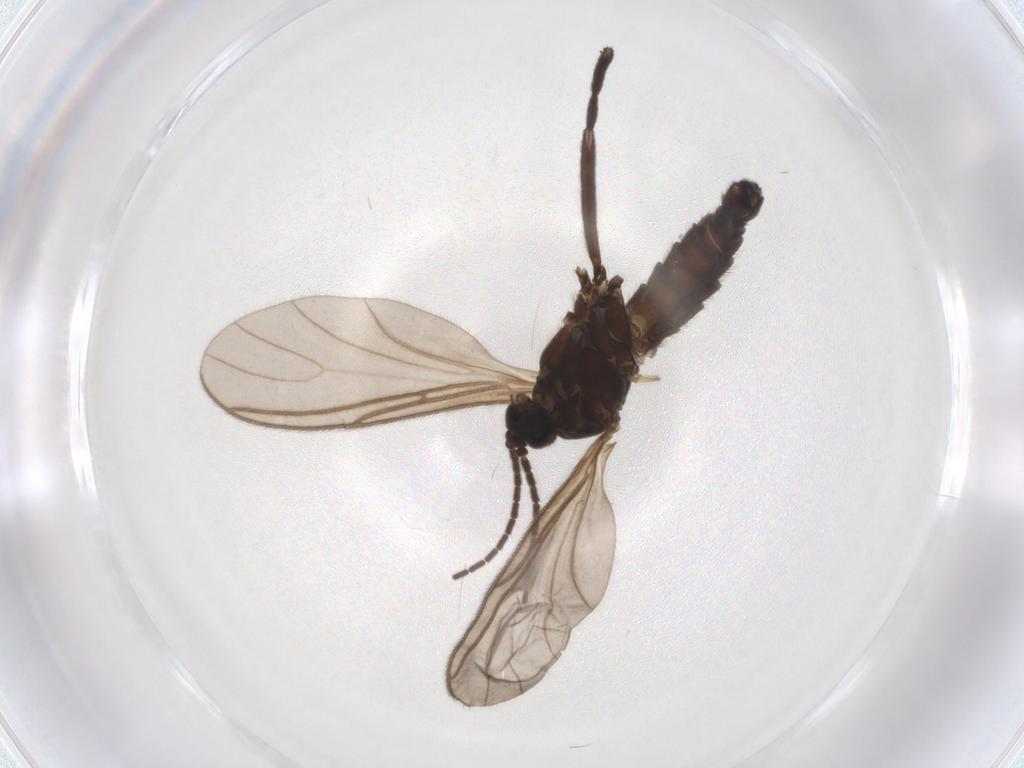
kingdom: Animalia
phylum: Arthropoda
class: Insecta
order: Diptera
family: Sciaridae
